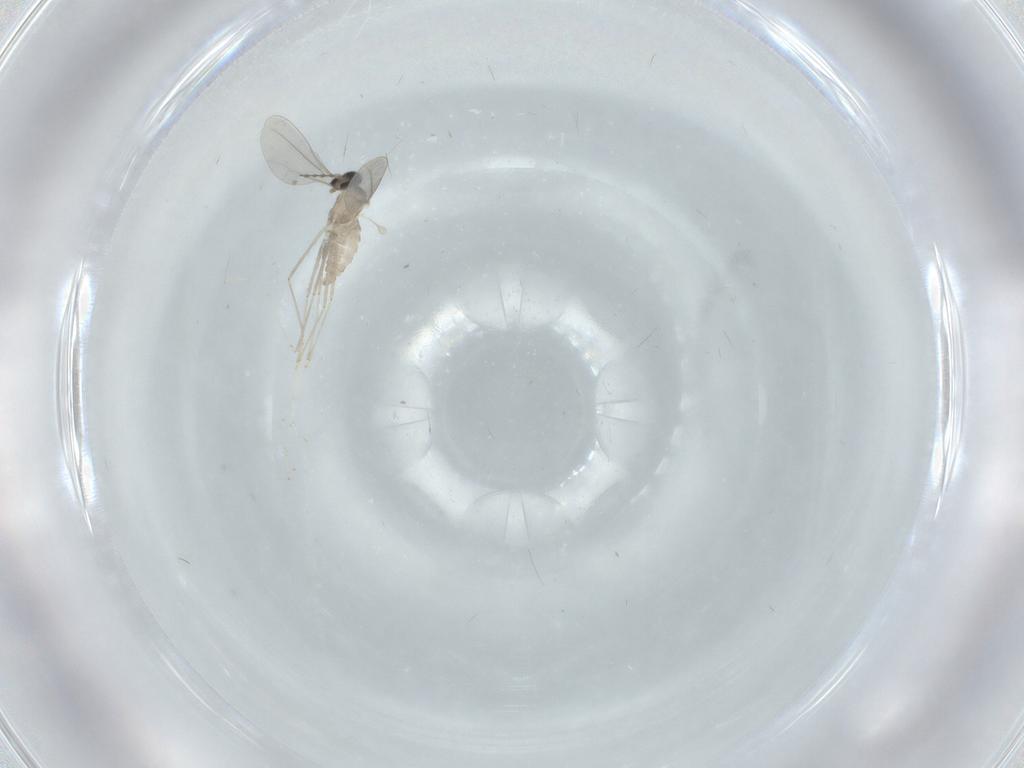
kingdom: Animalia
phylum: Arthropoda
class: Insecta
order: Diptera
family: Cecidomyiidae
